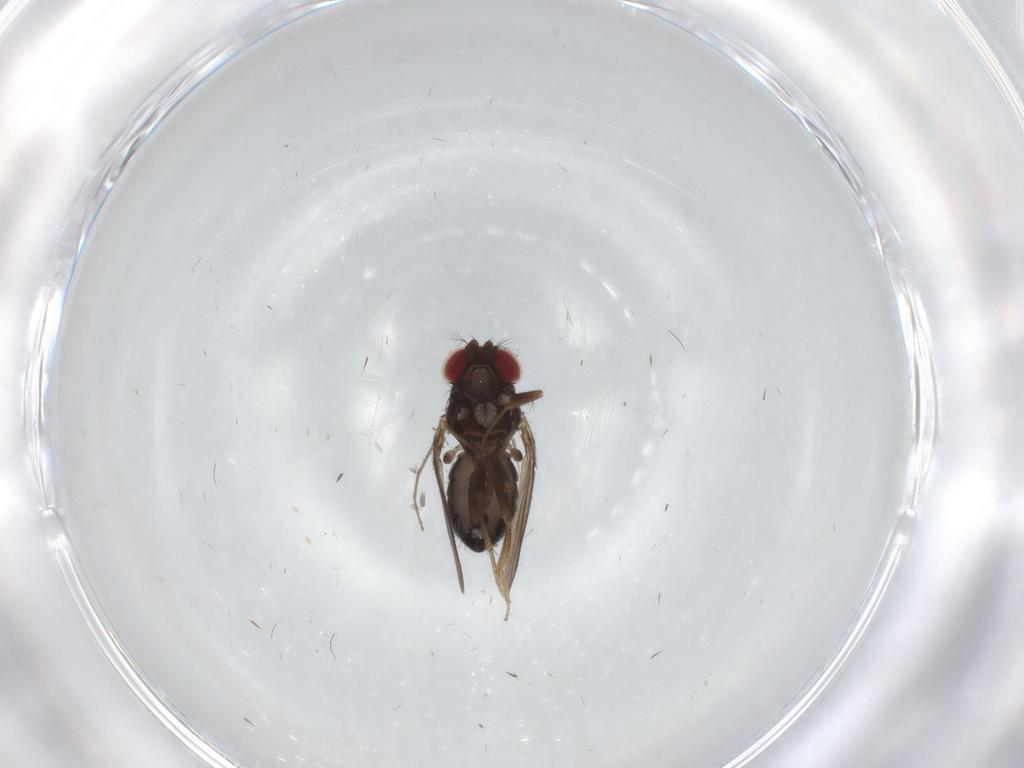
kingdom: Animalia
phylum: Arthropoda
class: Insecta
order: Diptera
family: Drosophilidae
